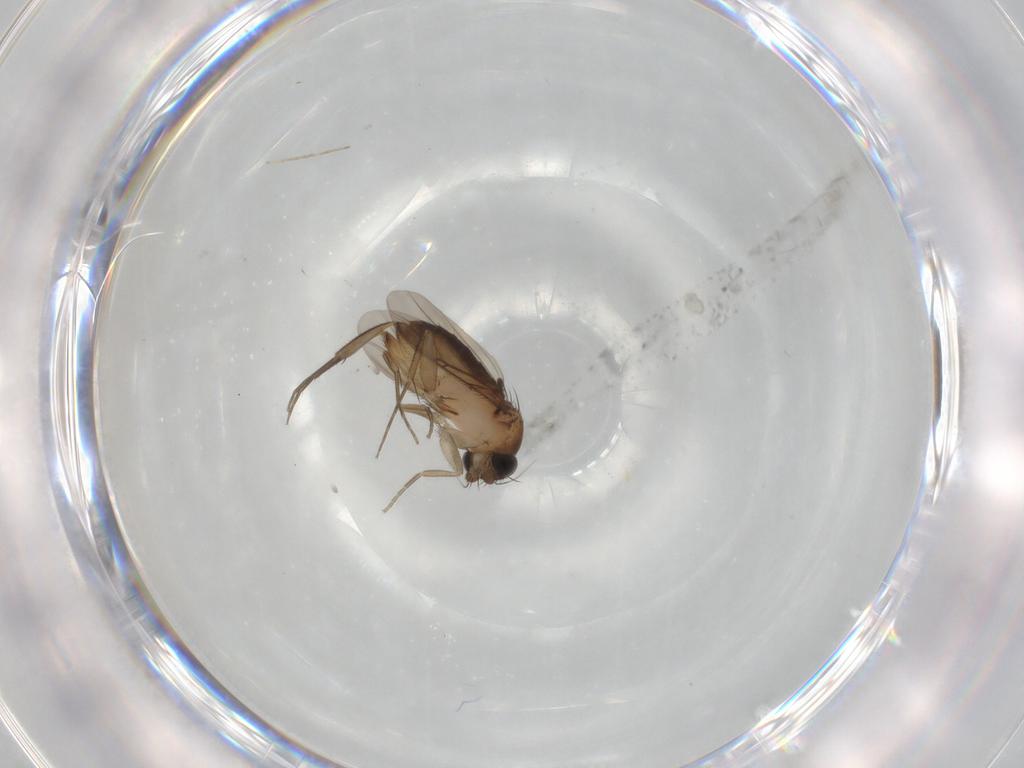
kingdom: Animalia
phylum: Arthropoda
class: Insecta
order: Diptera
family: Phoridae
